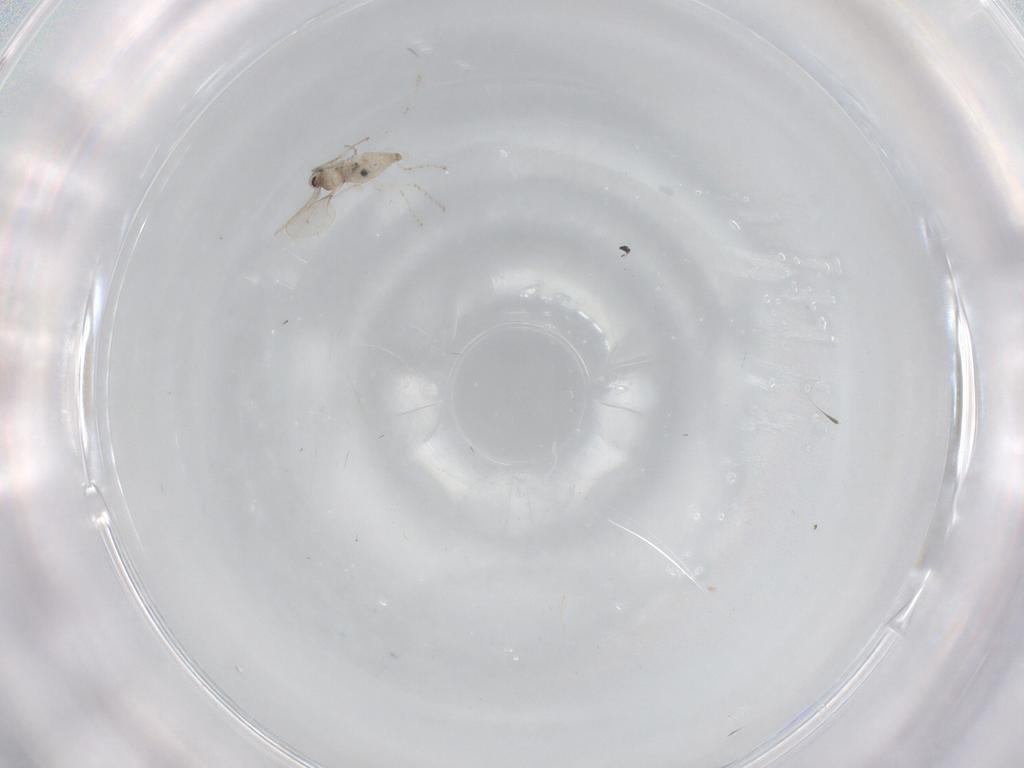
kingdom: Animalia
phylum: Arthropoda
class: Insecta
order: Diptera
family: Cecidomyiidae
